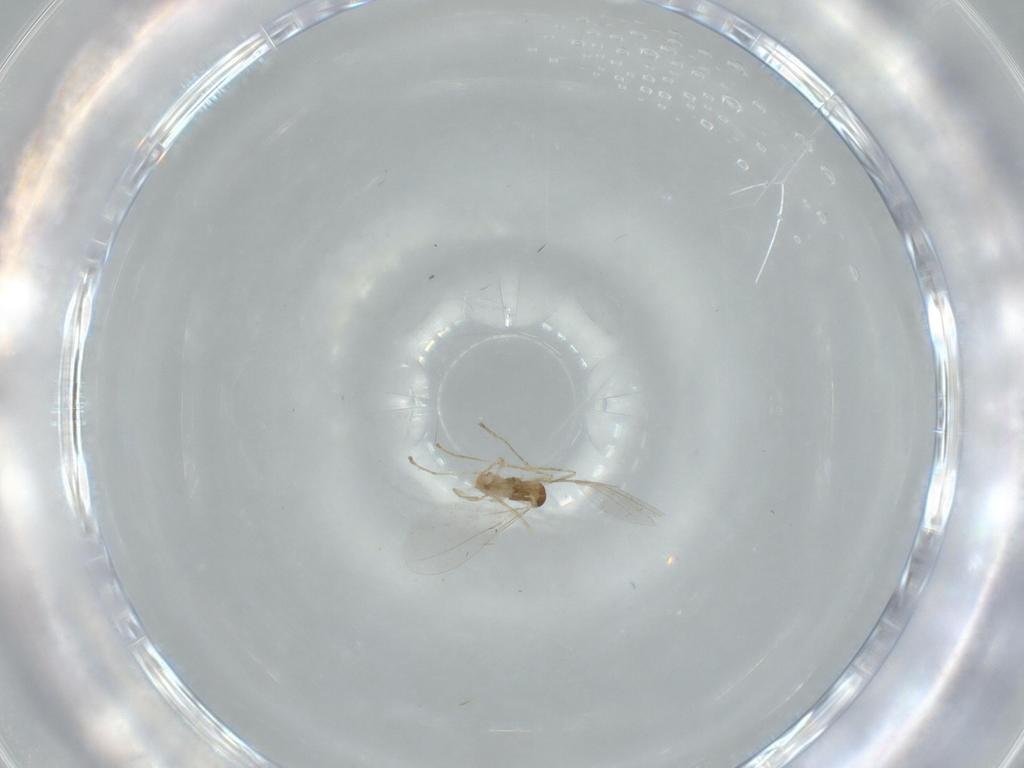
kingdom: Animalia
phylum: Arthropoda
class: Insecta
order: Diptera
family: Cecidomyiidae
